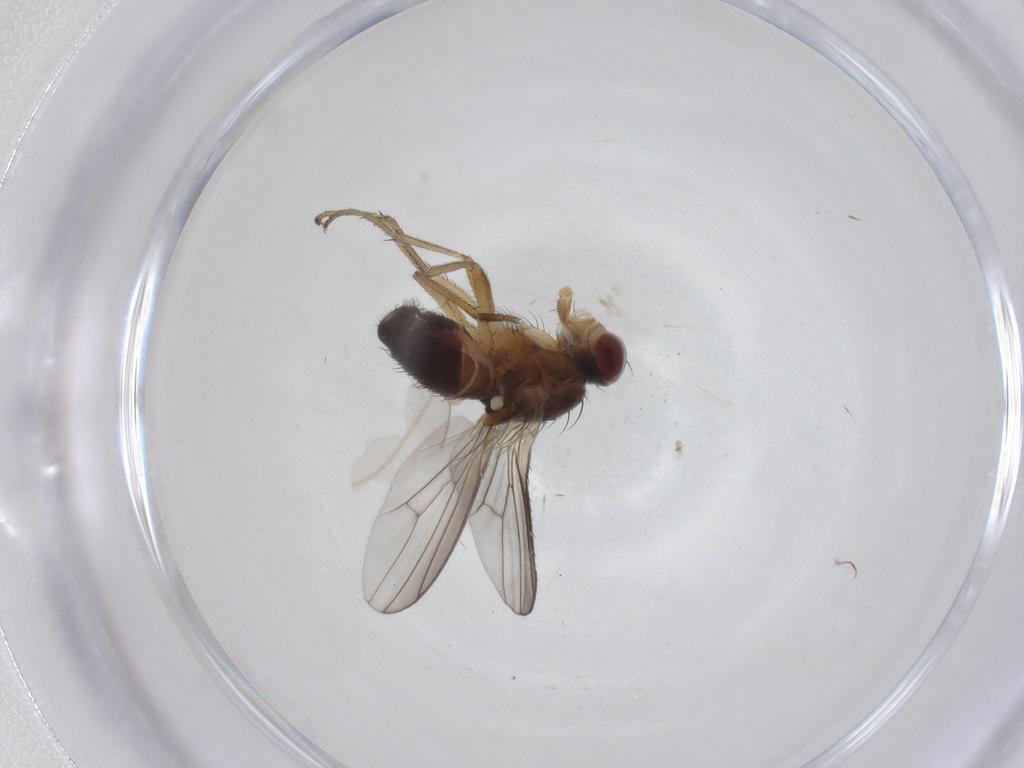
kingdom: Animalia
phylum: Arthropoda
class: Insecta
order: Diptera
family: Heleomyzidae
